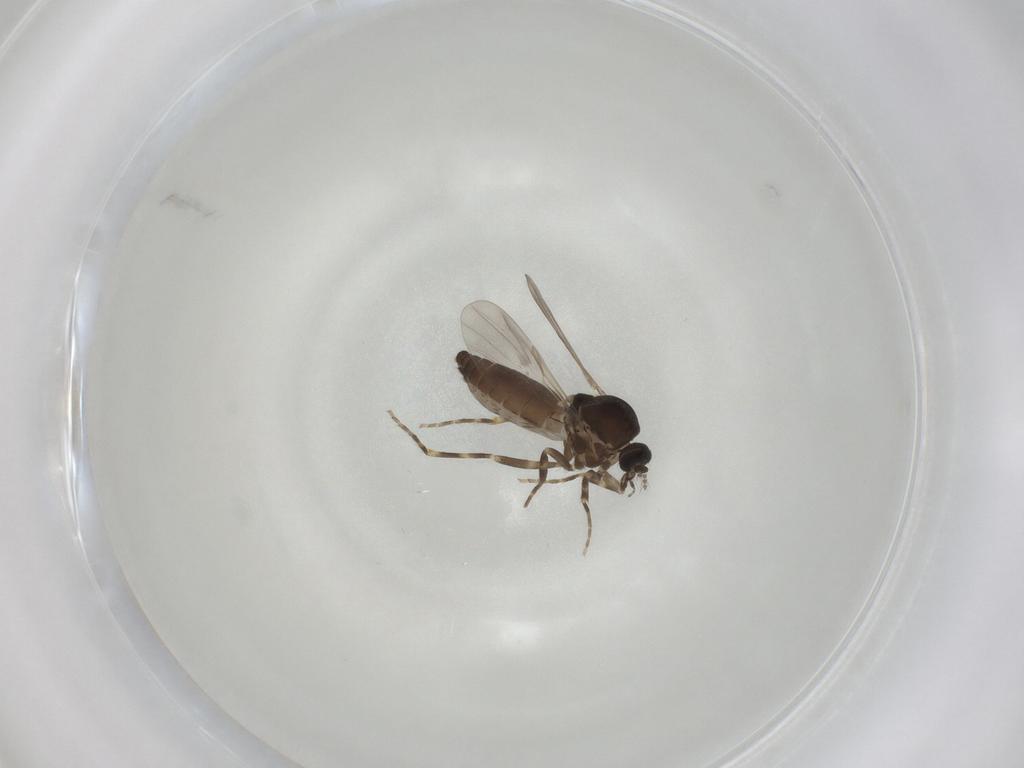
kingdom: Animalia
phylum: Arthropoda
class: Insecta
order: Diptera
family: Ceratopogonidae
